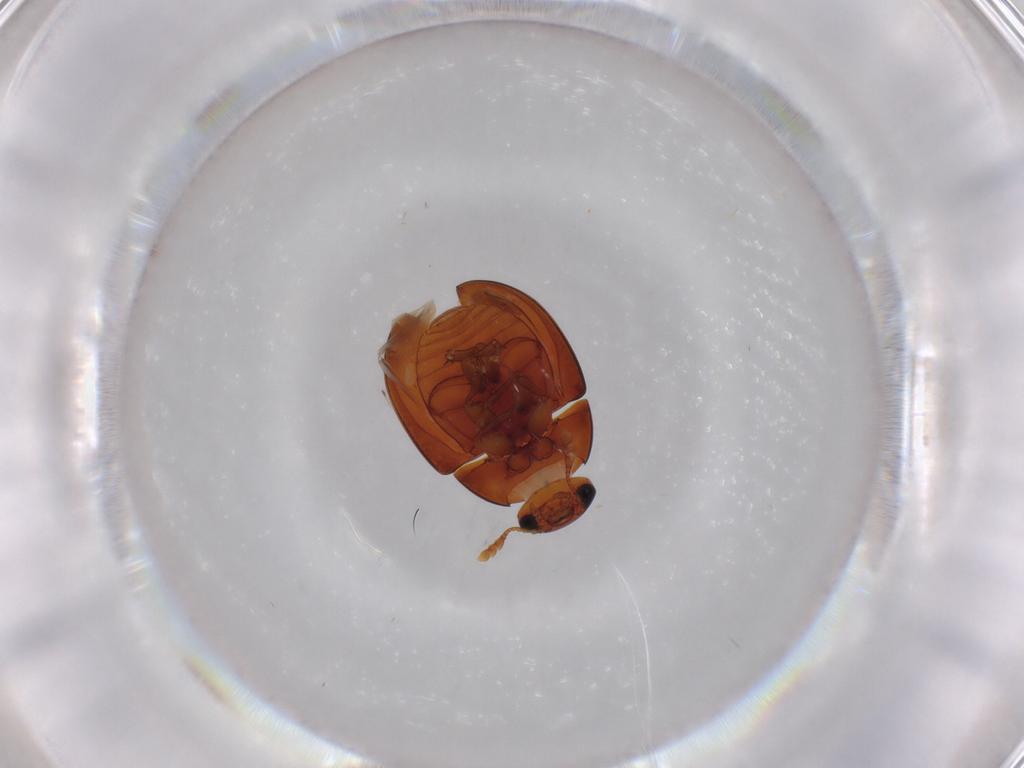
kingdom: Animalia
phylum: Arthropoda
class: Insecta
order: Coleoptera
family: Phalacridae
